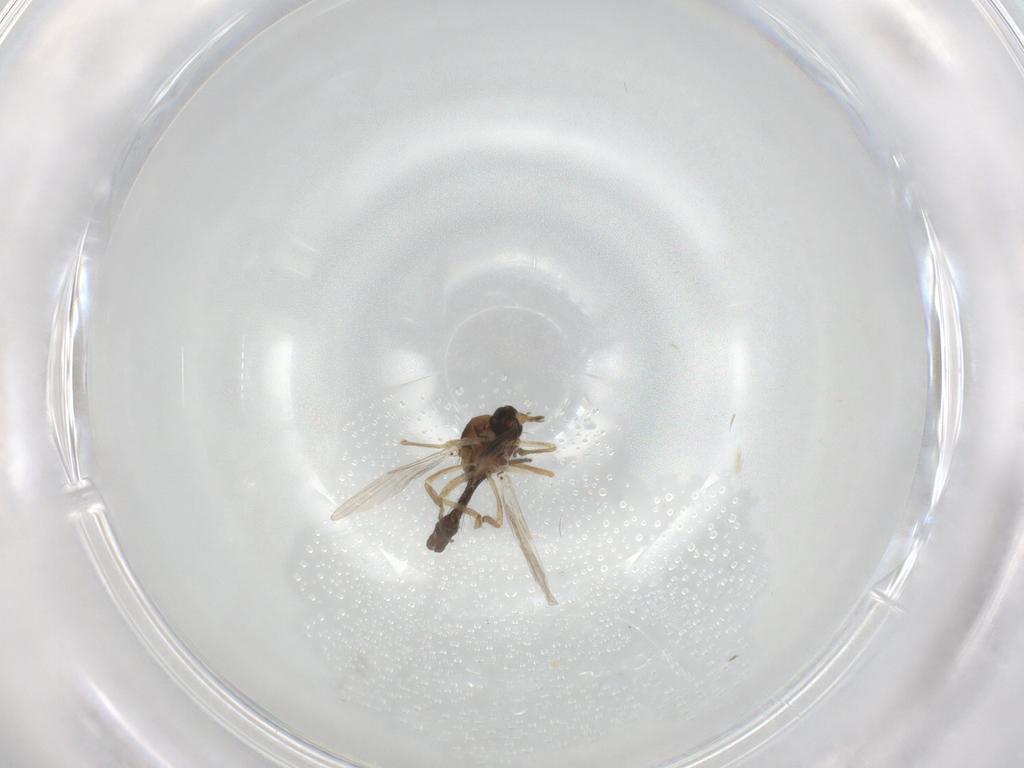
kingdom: Animalia
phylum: Arthropoda
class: Insecta
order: Diptera
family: Ceratopogonidae
